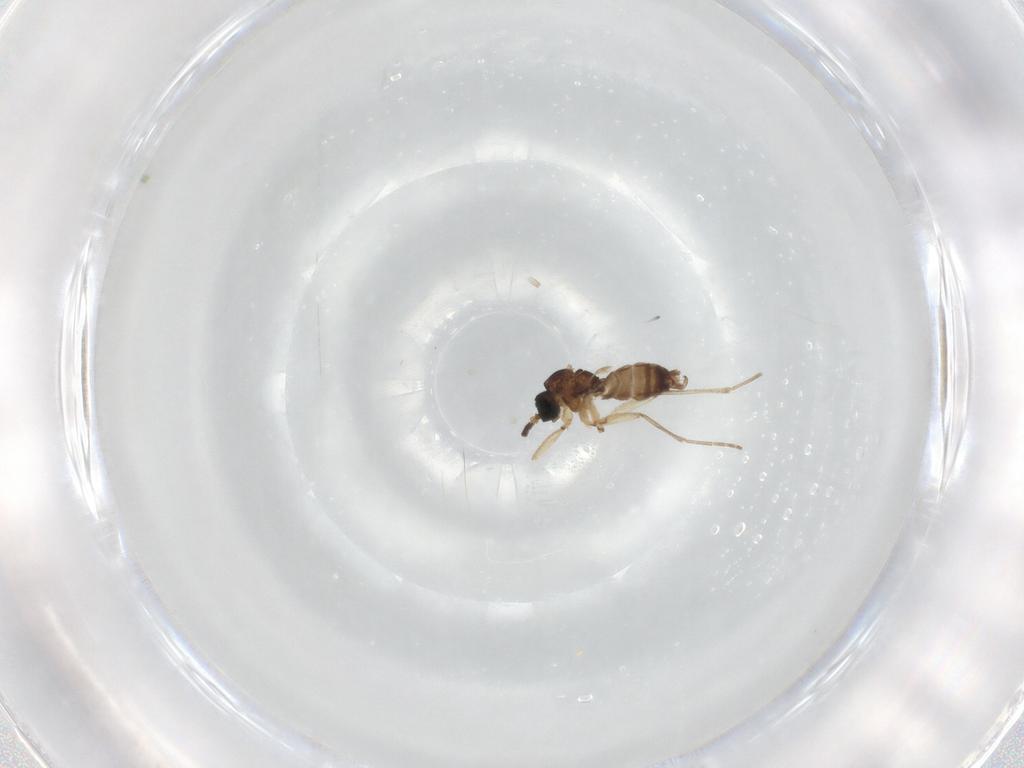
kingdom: Animalia
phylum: Arthropoda
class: Insecta
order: Diptera
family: Sciaridae
